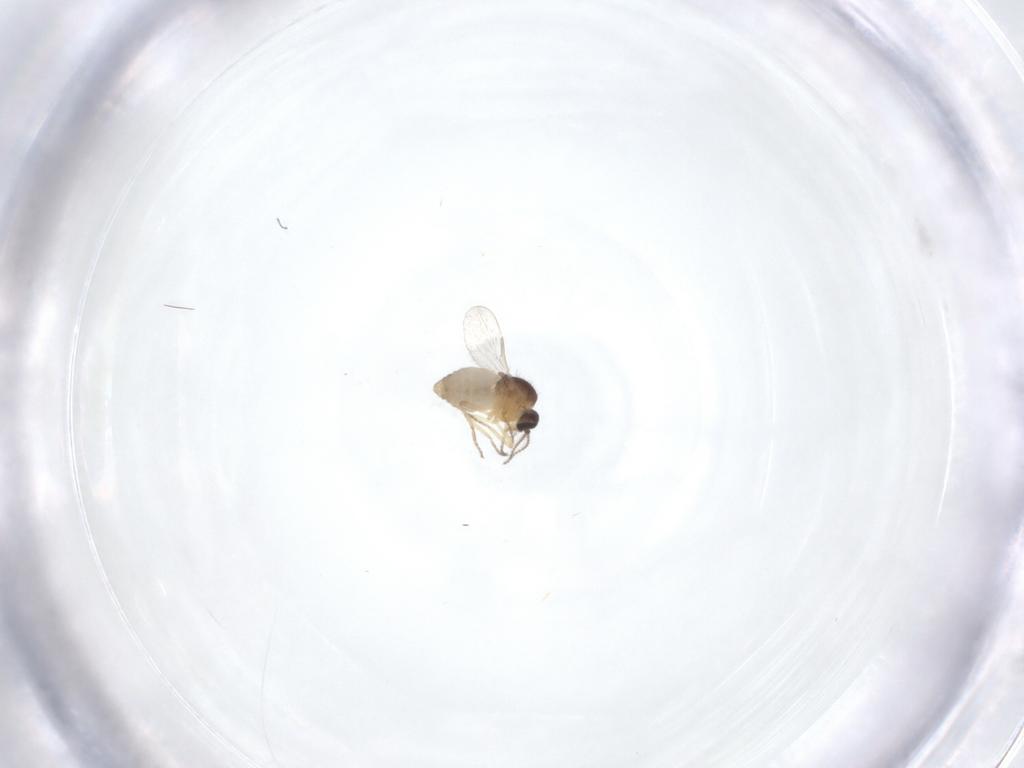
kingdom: Animalia
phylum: Arthropoda
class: Insecta
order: Diptera
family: Ceratopogonidae
